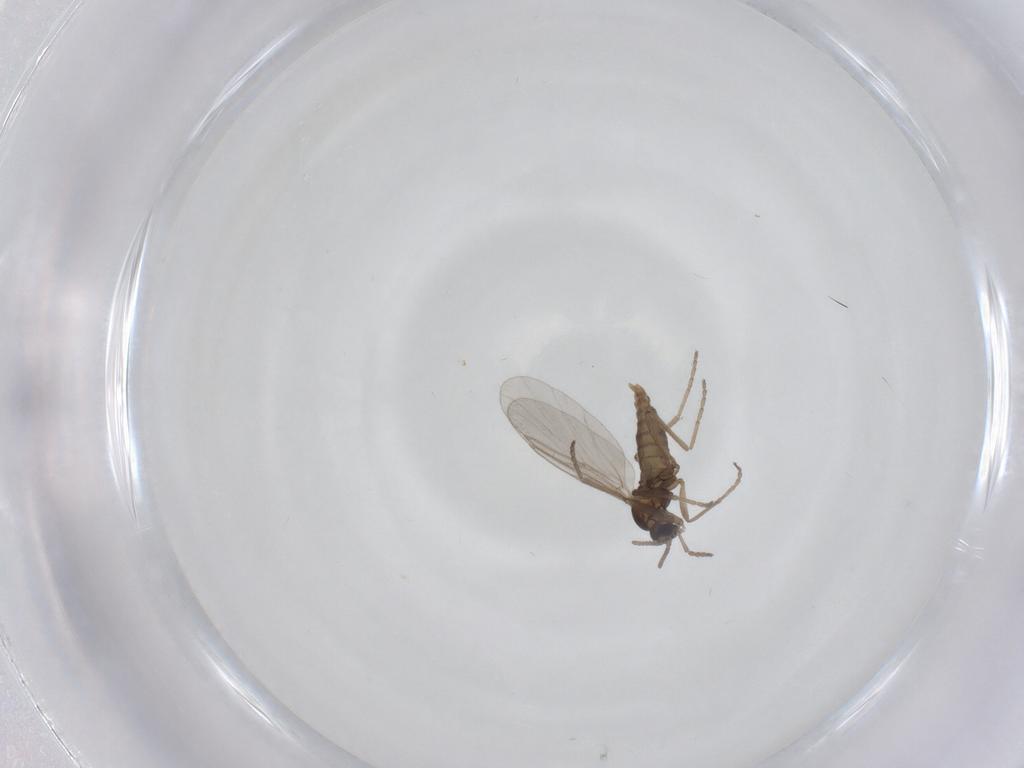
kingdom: Animalia
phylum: Arthropoda
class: Insecta
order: Diptera
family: Cecidomyiidae
